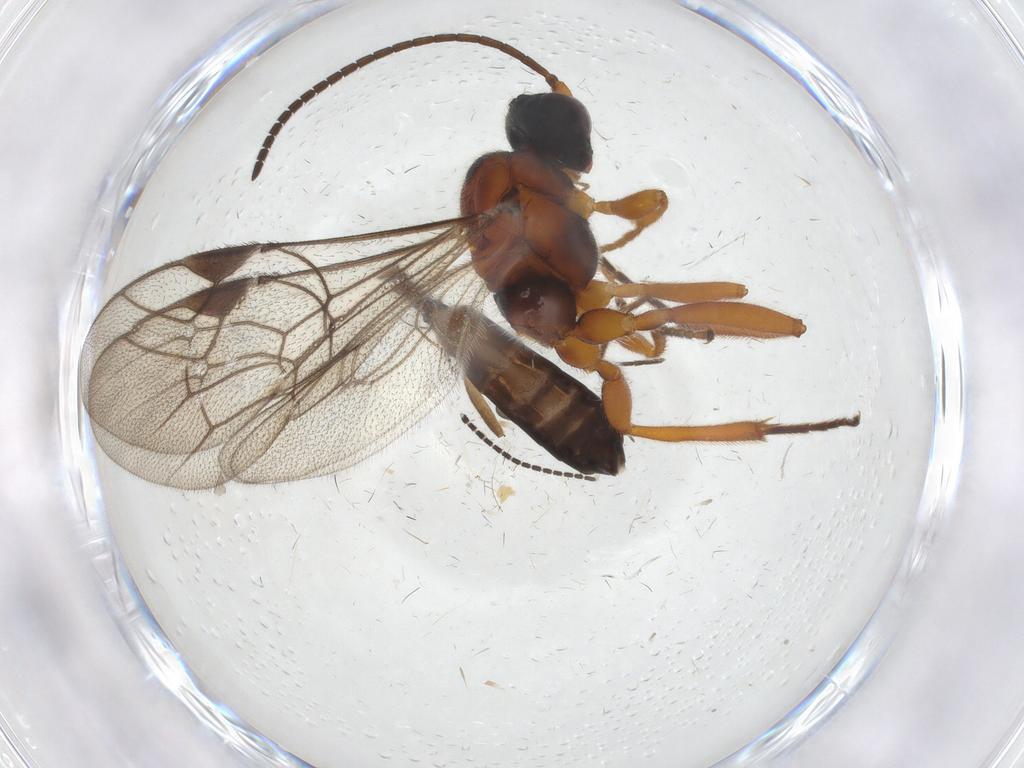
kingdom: Animalia
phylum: Arthropoda
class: Insecta
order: Hymenoptera
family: Ichneumonidae
